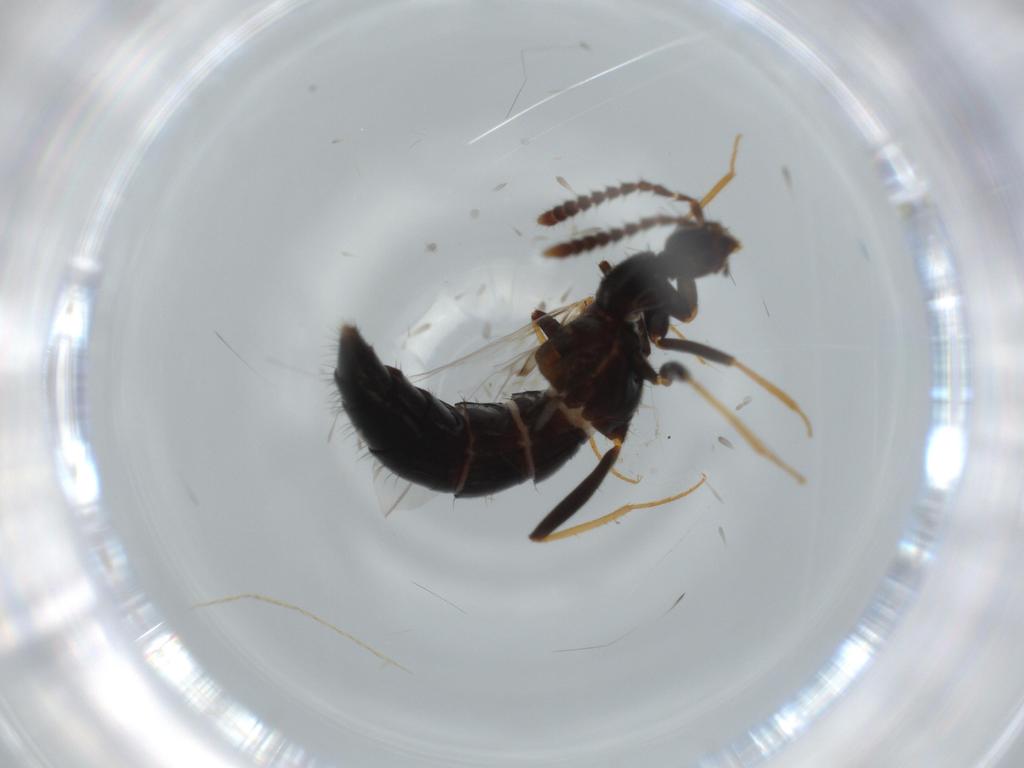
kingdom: Animalia
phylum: Arthropoda
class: Insecta
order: Coleoptera
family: Staphylinidae
